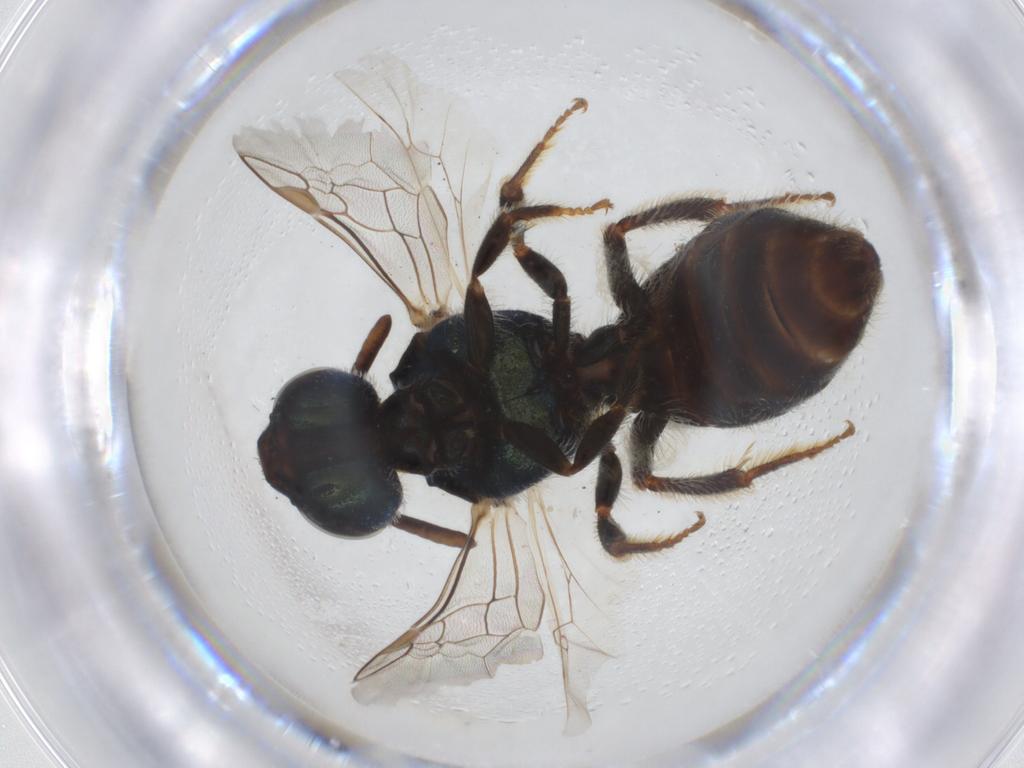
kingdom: Animalia
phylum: Arthropoda
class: Insecta
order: Hymenoptera
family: Halictidae
